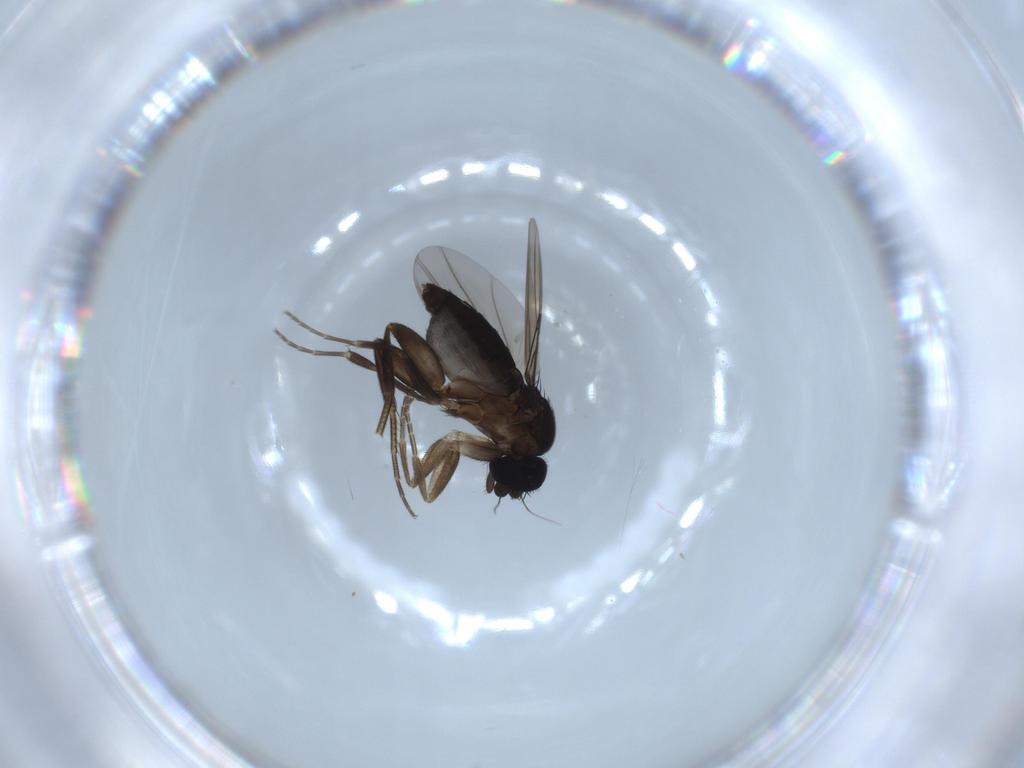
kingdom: Animalia
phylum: Arthropoda
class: Insecta
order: Diptera
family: Phoridae
